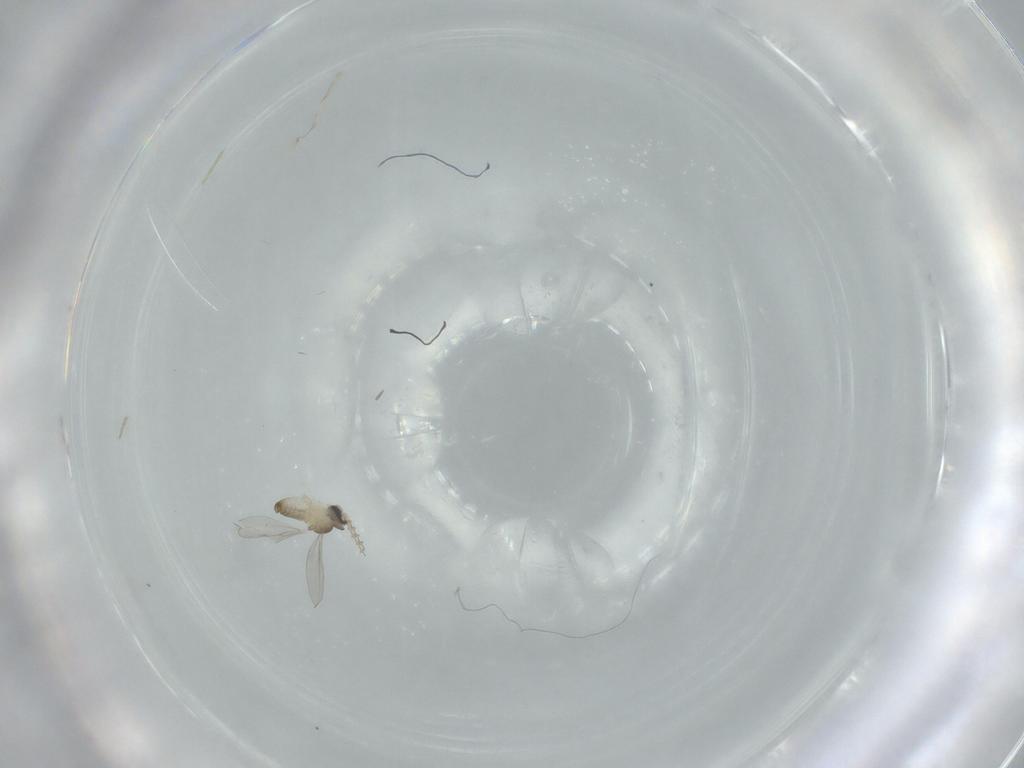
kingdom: Animalia
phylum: Arthropoda
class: Insecta
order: Diptera
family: Cecidomyiidae
